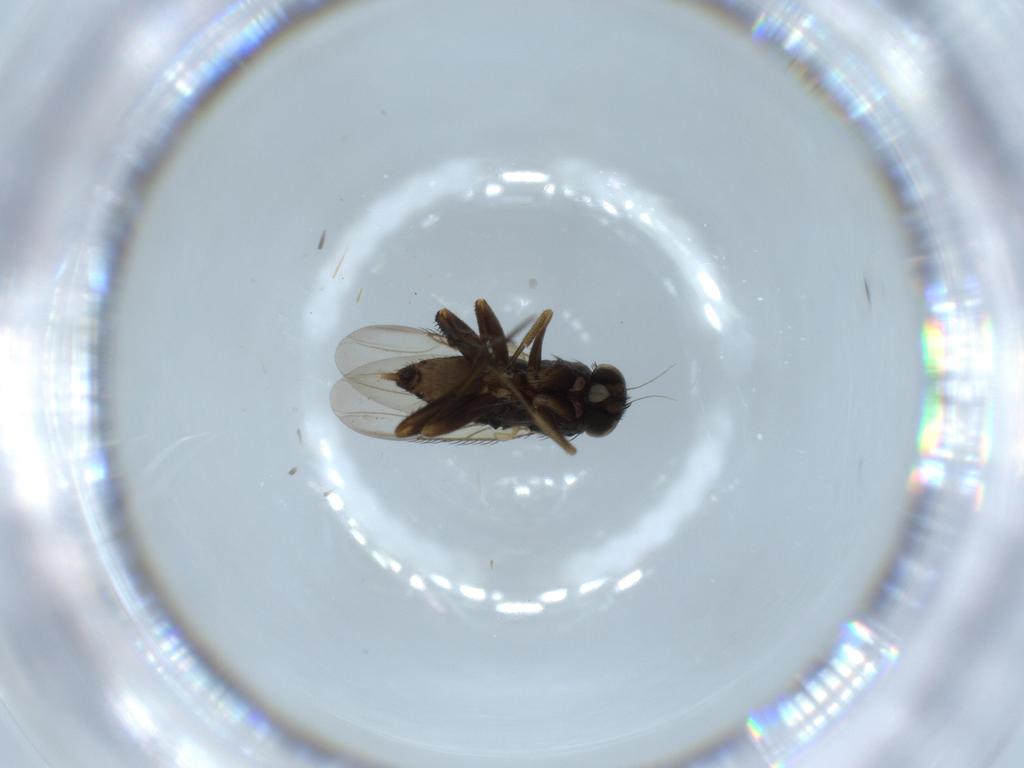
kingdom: Animalia
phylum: Arthropoda
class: Insecta
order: Diptera
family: Phoridae
